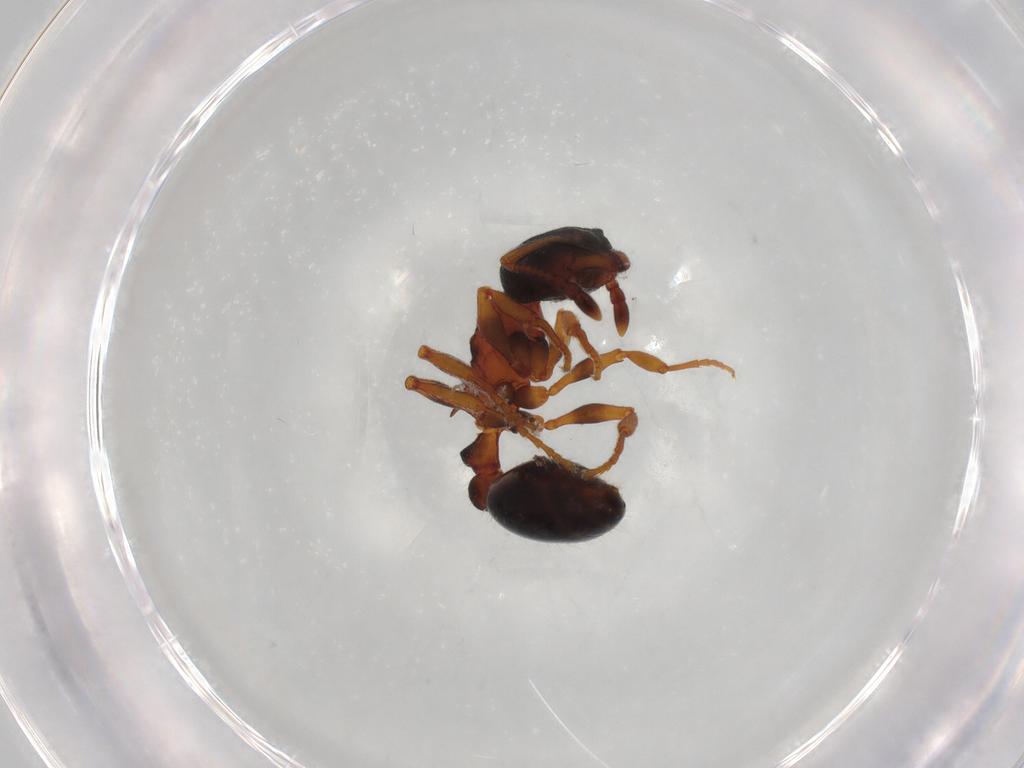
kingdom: Animalia
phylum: Arthropoda
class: Insecta
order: Hymenoptera
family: Formicidae
